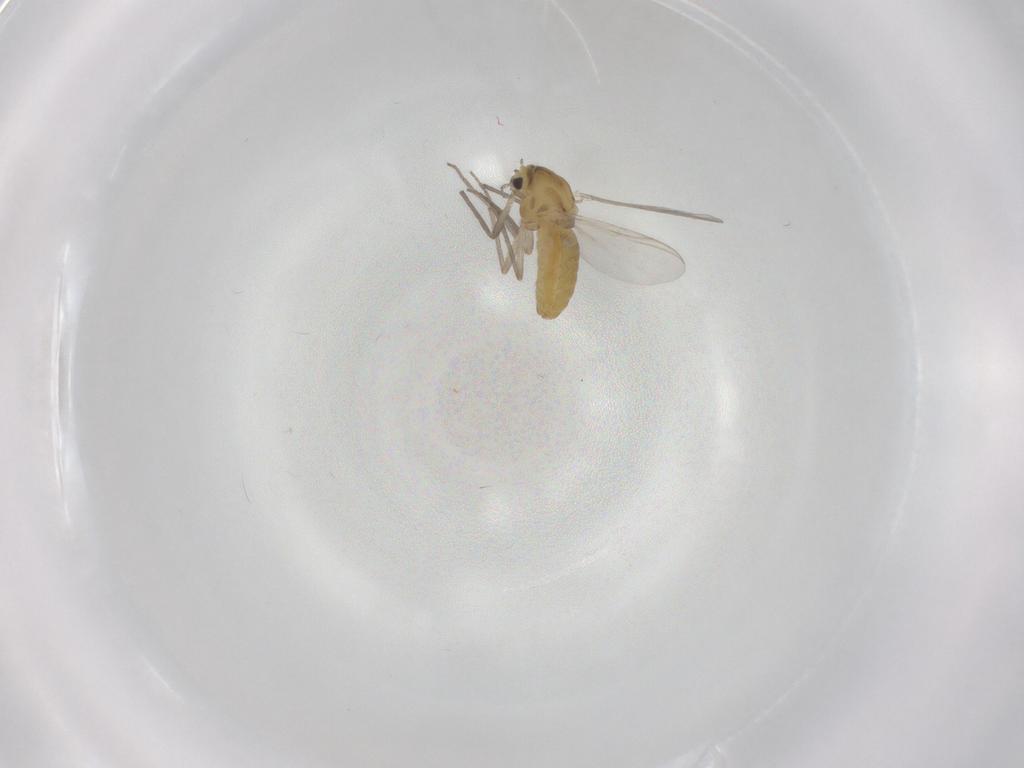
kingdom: Animalia
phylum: Arthropoda
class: Insecta
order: Diptera
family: Chironomidae
